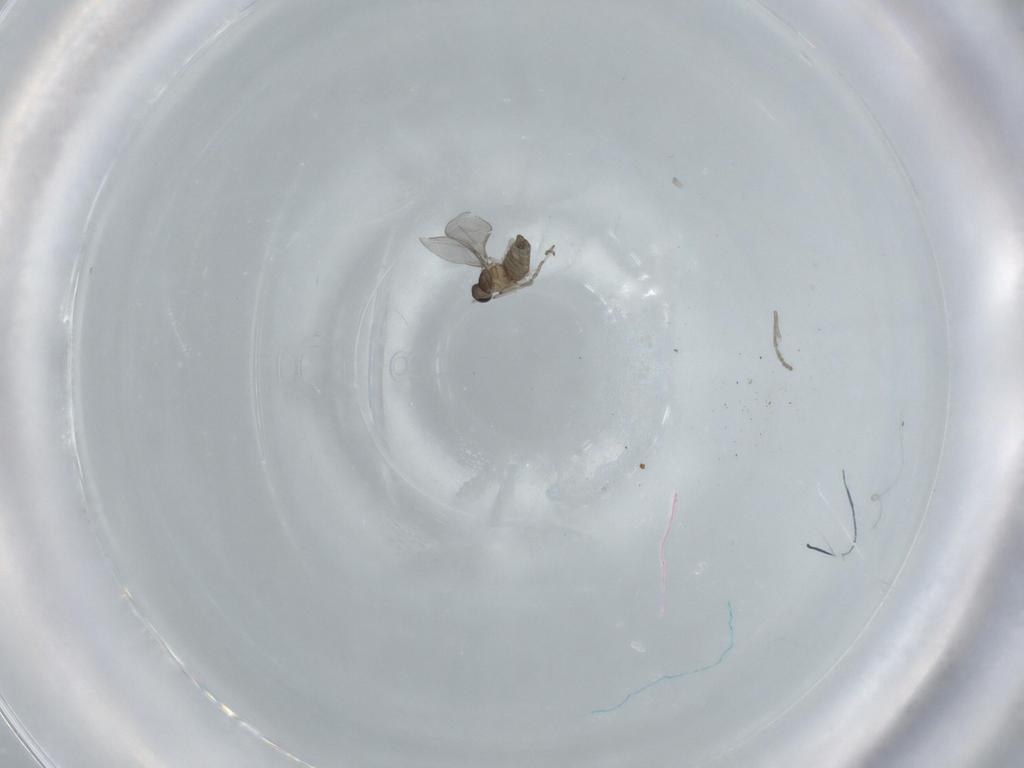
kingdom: Animalia
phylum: Arthropoda
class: Insecta
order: Diptera
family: Cecidomyiidae
